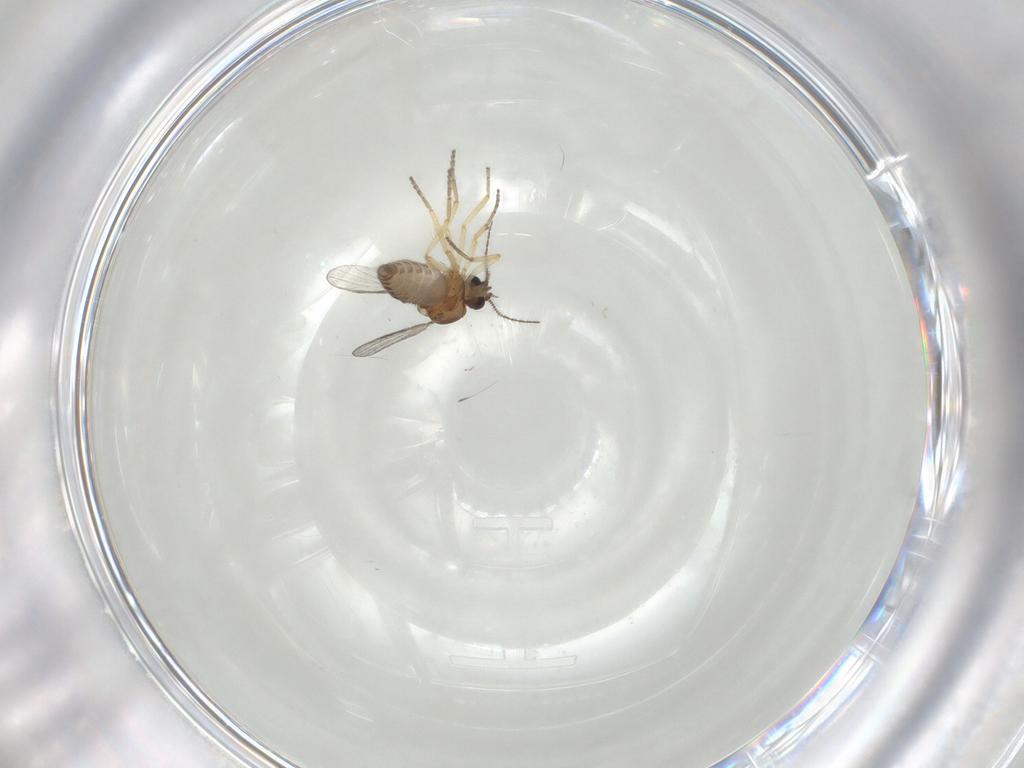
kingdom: Animalia
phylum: Arthropoda
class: Insecta
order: Diptera
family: Ceratopogonidae
